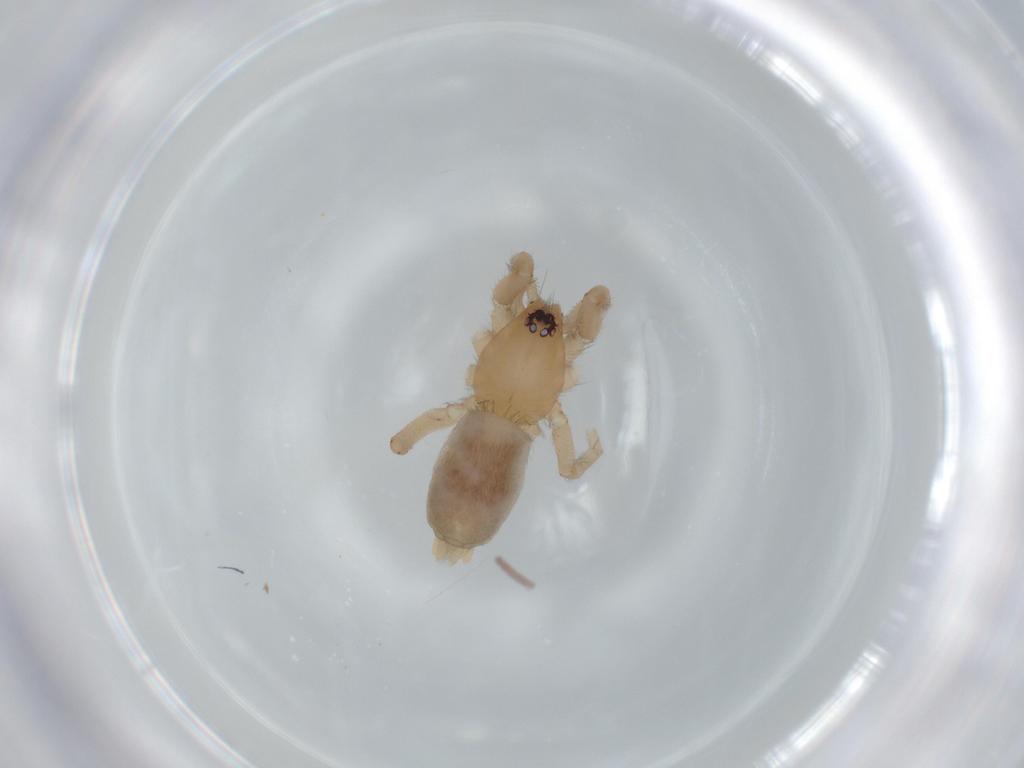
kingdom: Animalia
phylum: Arthropoda
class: Arachnida
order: Araneae
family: Gnaphosidae
